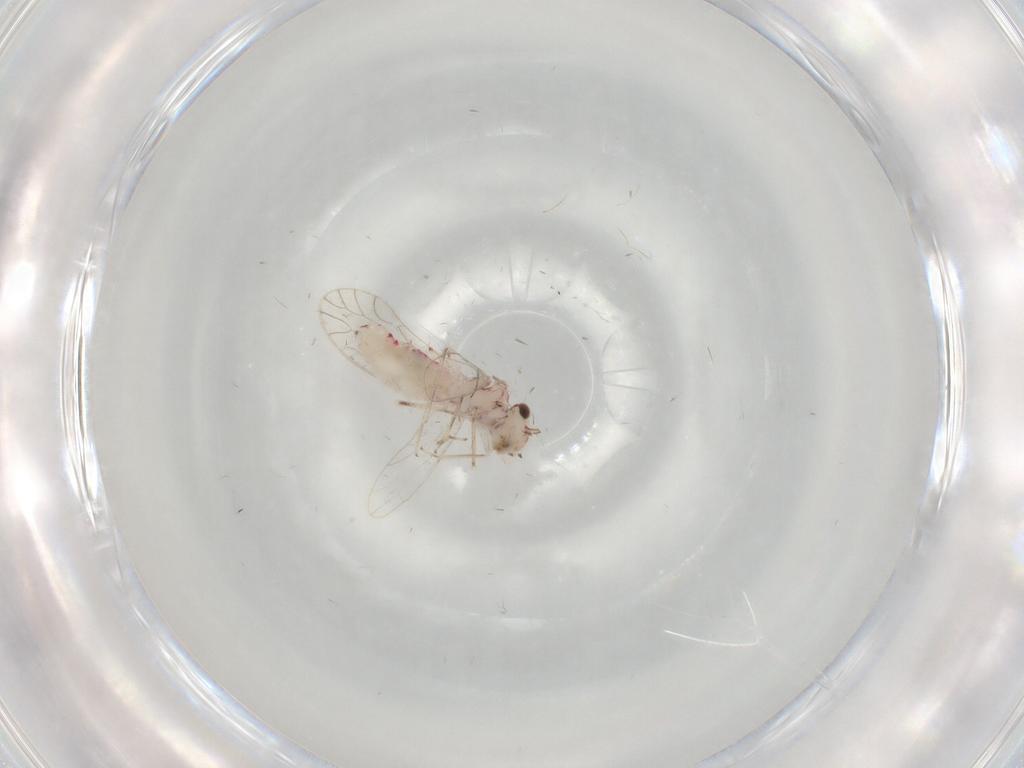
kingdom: Animalia
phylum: Arthropoda
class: Insecta
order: Psocodea
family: Caeciliusidae
